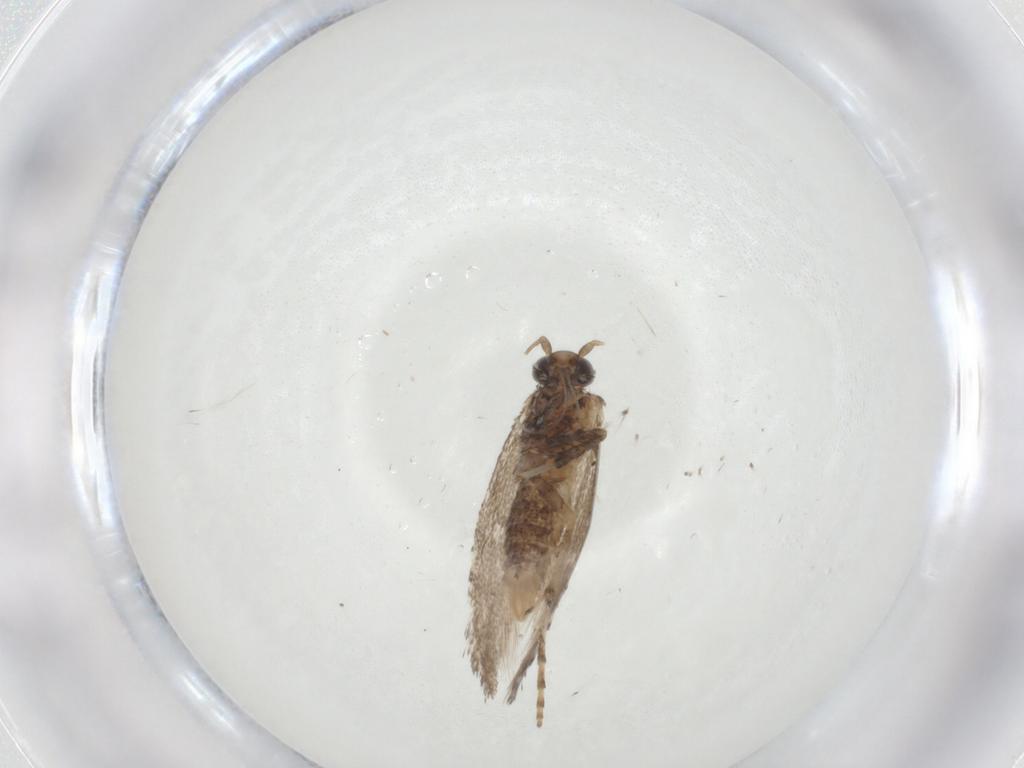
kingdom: Animalia
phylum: Arthropoda
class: Insecta
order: Lepidoptera
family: Gracillariidae
